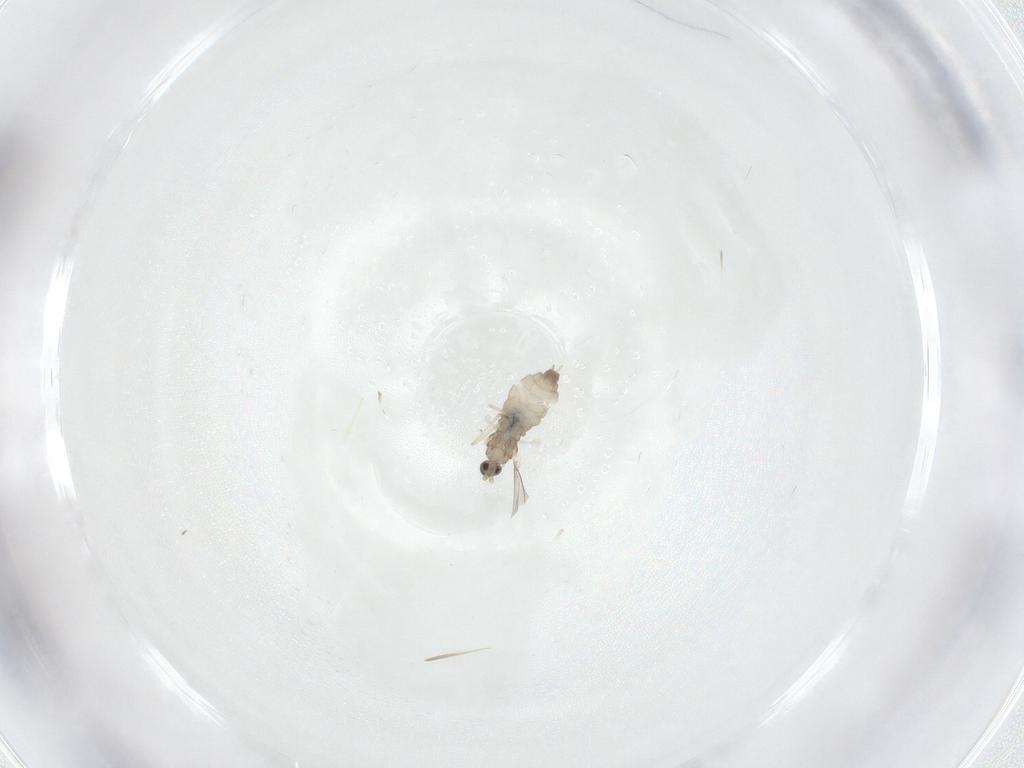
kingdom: Animalia
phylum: Arthropoda
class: Insecta
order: Diptera
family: Cecidomyiidae
